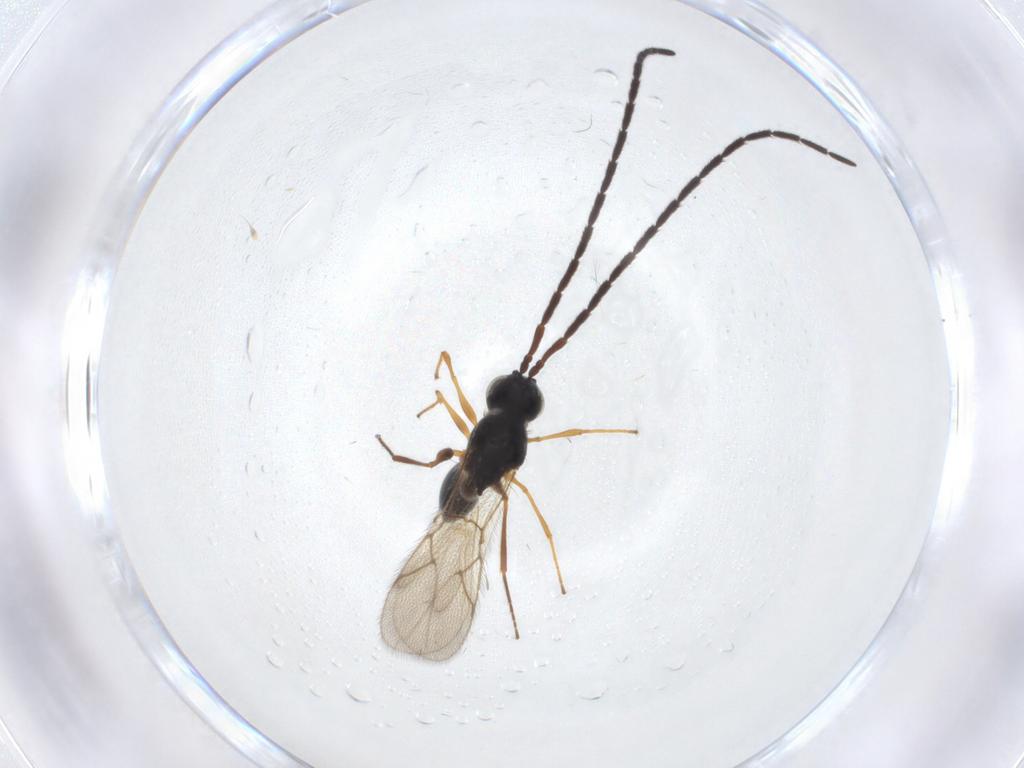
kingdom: Animalia
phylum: Arthropoda
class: Insecta
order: Hymenoptera
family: Figitidae
